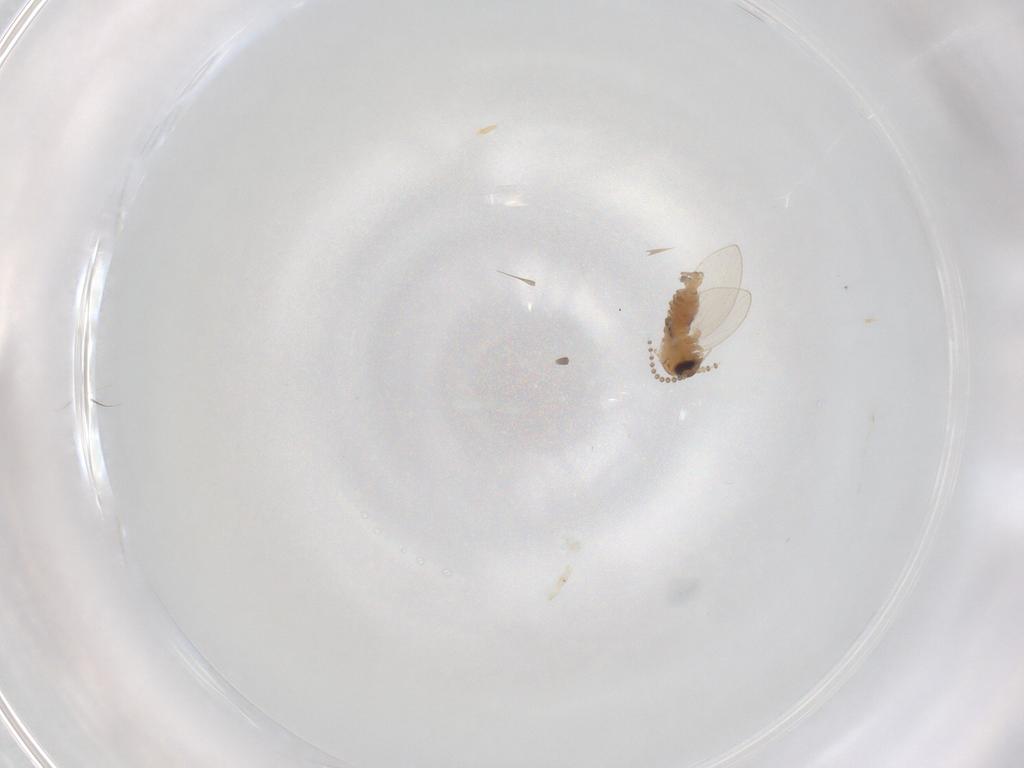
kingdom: Animalia
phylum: Arthropoda
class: Insecta
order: Diptera
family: Psychodidae
